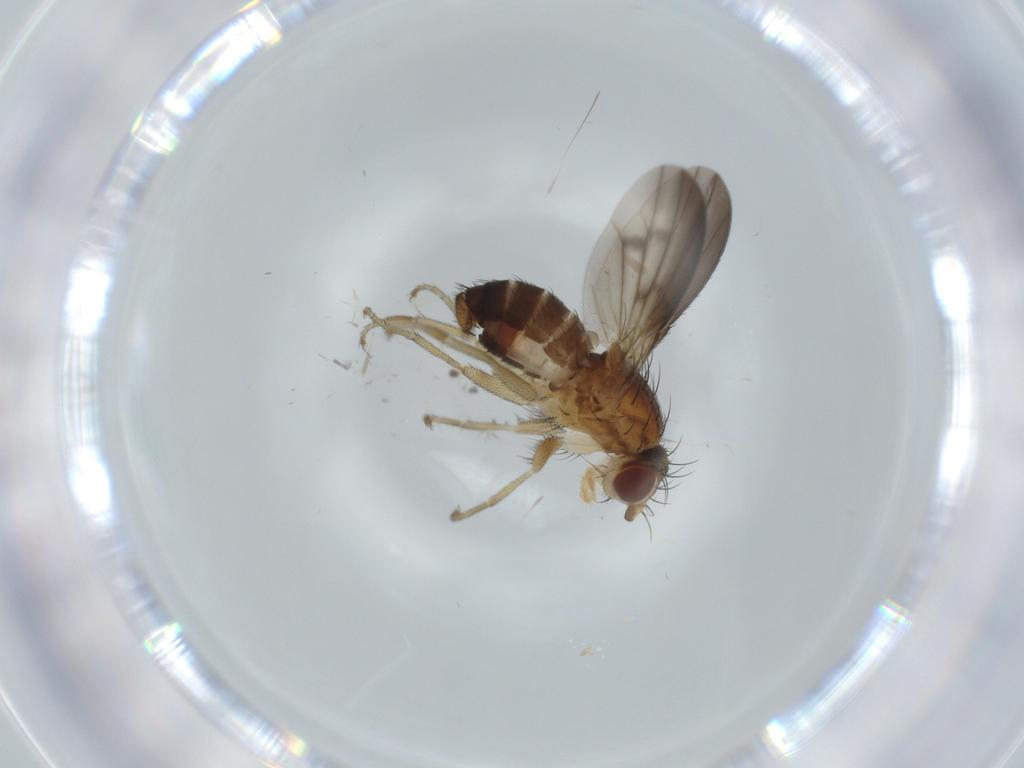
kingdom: Animalia
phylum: Arthropoda
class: Insecta
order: Diptera
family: Heleomyzidae
